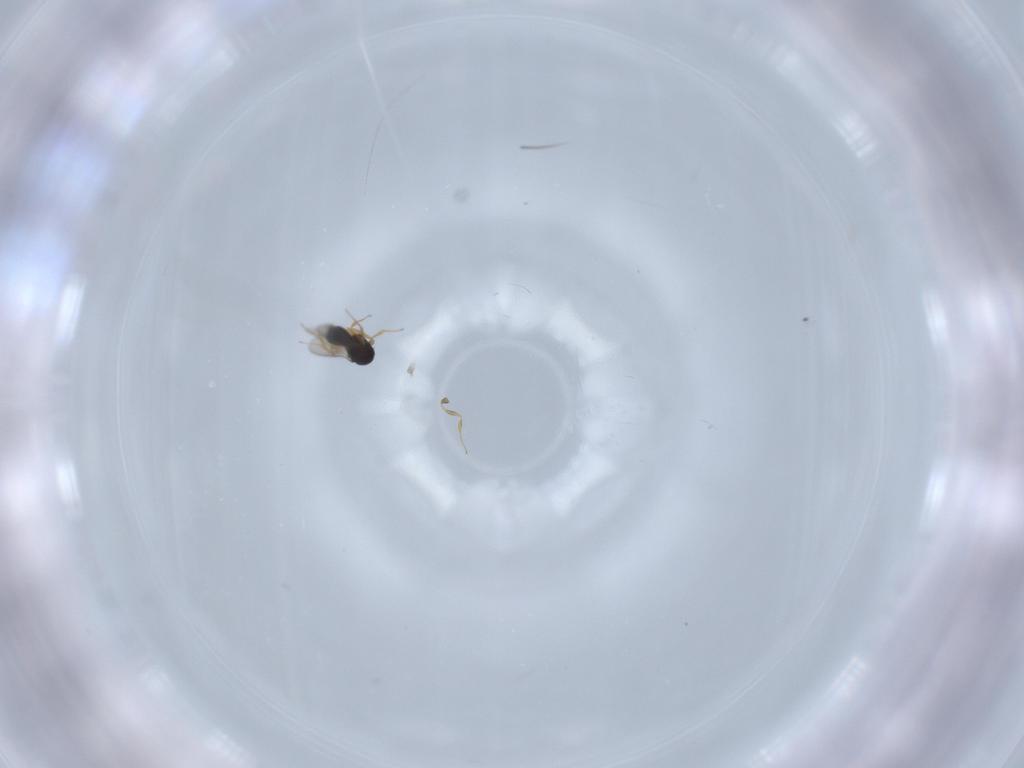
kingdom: Animalia
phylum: Arthropoda
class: Insecta
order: Hymenoptera
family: Scelionidae
